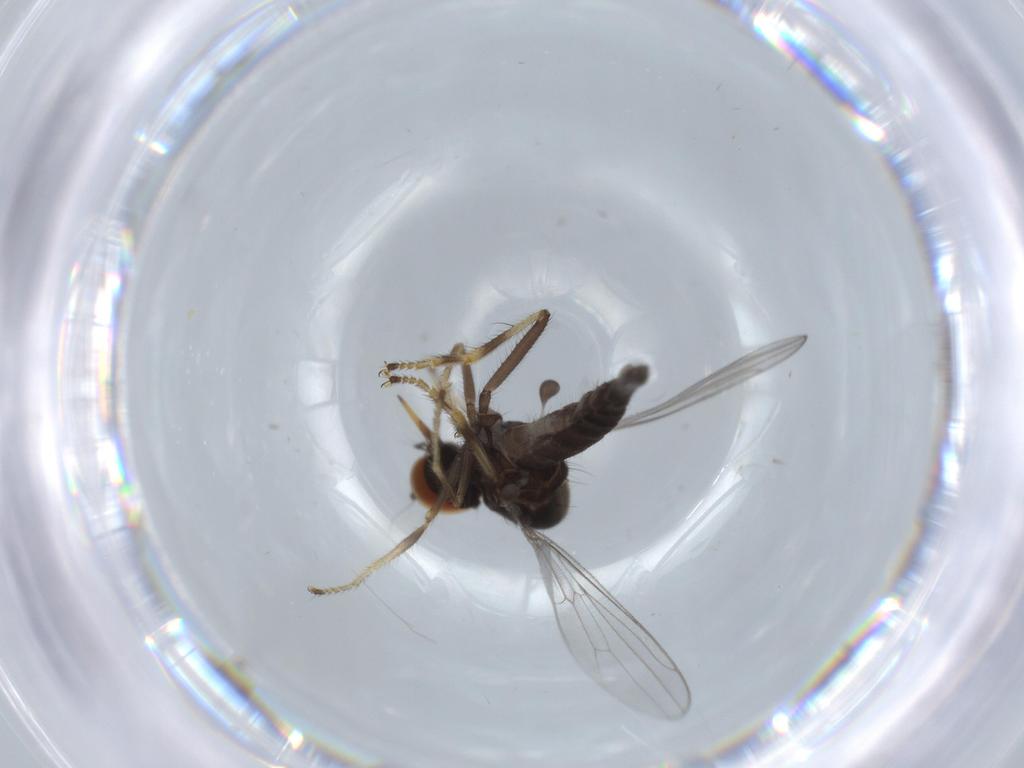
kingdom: Animalia
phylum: Arthropoda
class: Insecta
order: Diptera
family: Hybotidae
